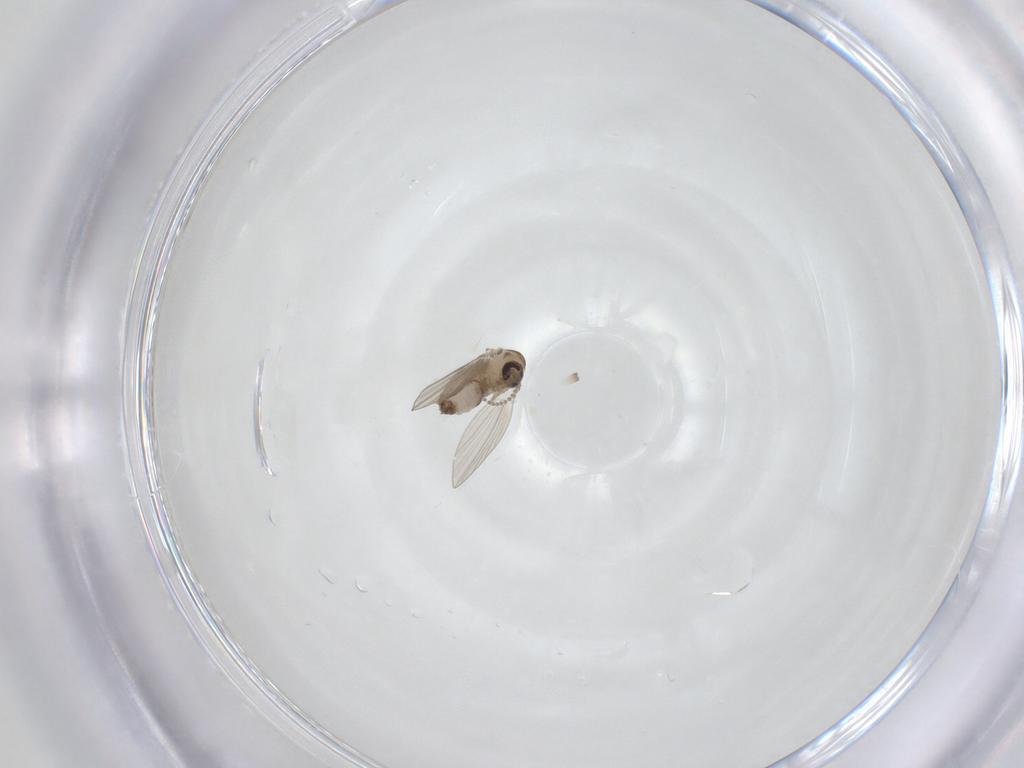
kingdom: Animalia
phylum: Arthropoda
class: Insecta
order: Diptera
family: Psychodidae
